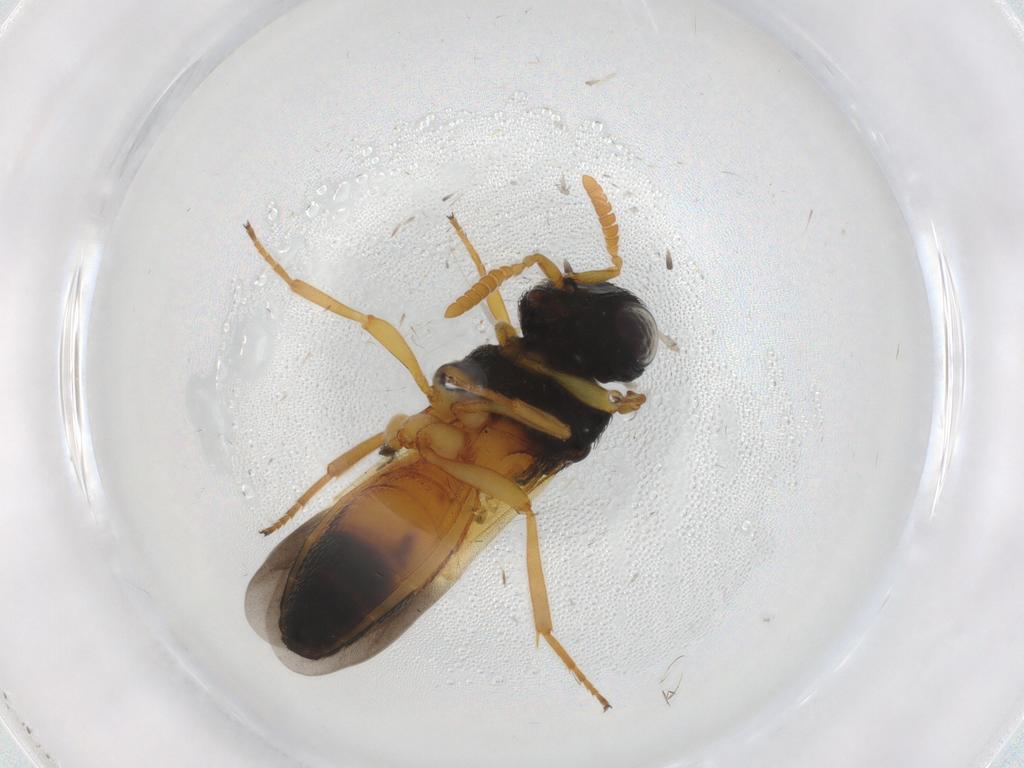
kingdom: Animalia
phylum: Arthropoda
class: Insecta
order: Hymenoptera
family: Scelionidae
